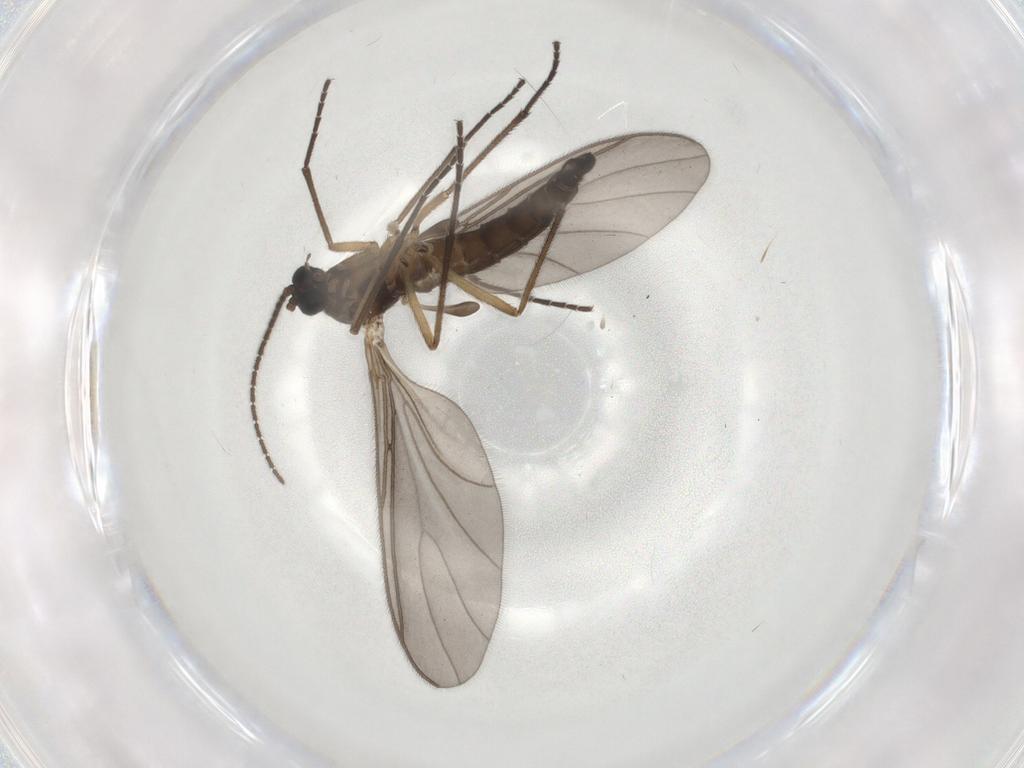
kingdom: Animalia
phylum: Arthropoda
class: Insecta
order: Diptera
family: Sciaridae
